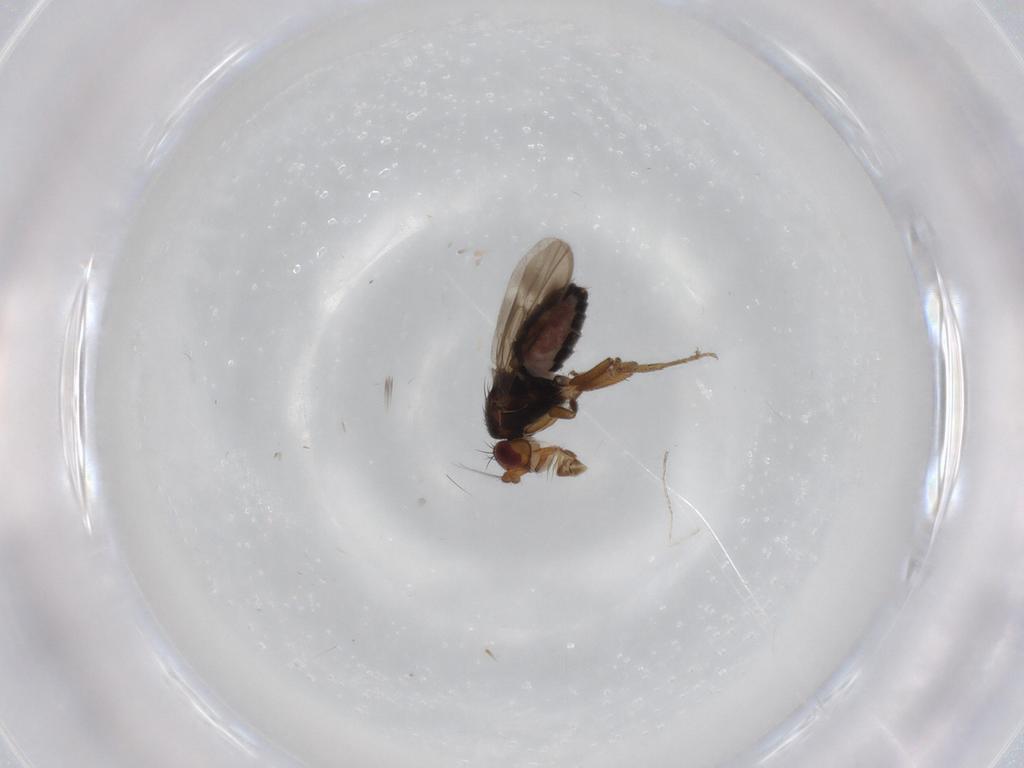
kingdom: Animalia
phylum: Arthropoda
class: Insecta
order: Diptera
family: Sphaeroceridae
